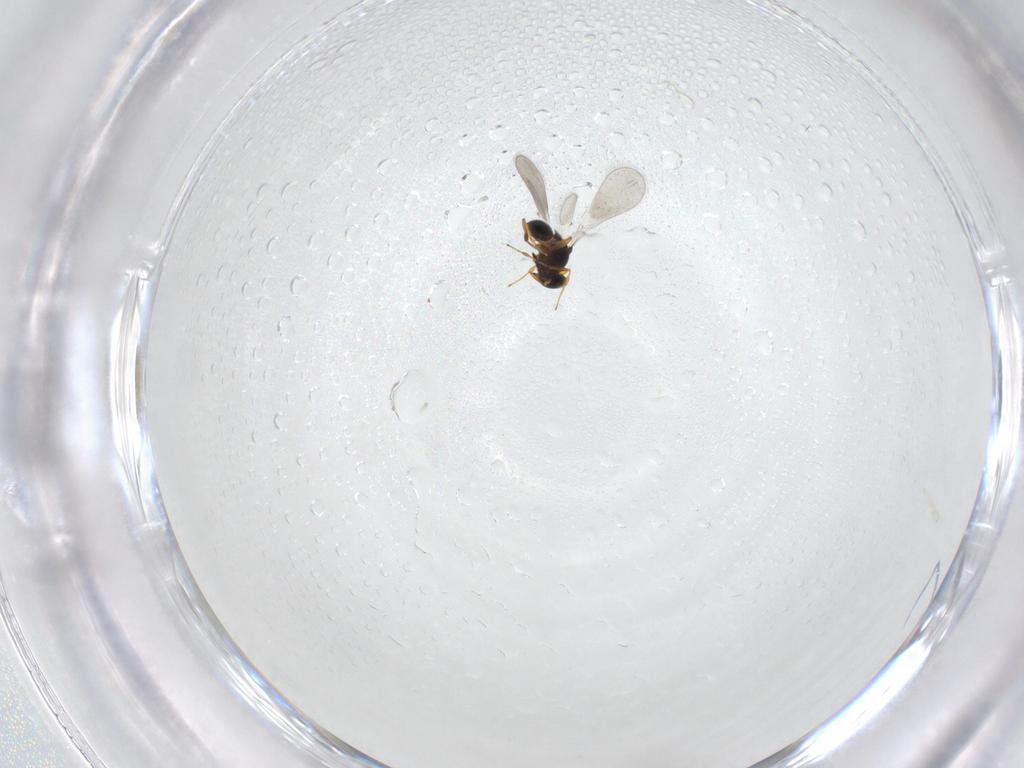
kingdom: Animalia
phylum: Arthropoda
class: Insecta
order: Hymenoptera
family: Platygastridae
